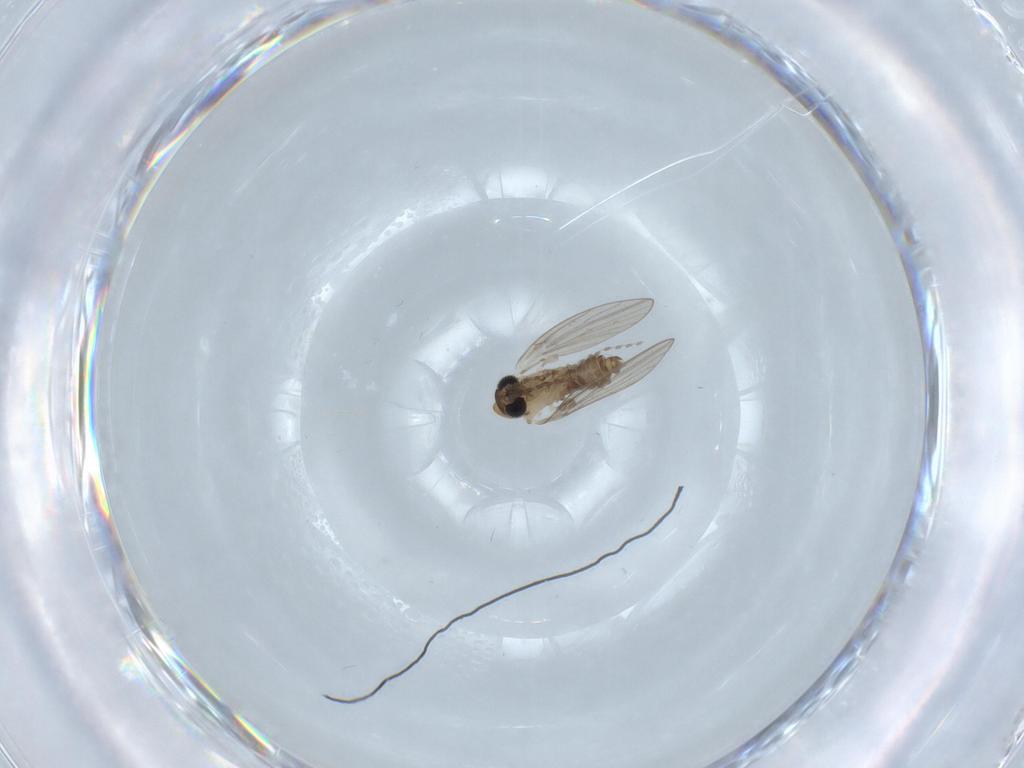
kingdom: Animalia
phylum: Arthropoda
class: Insecta
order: Diptera
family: Psychodidae
